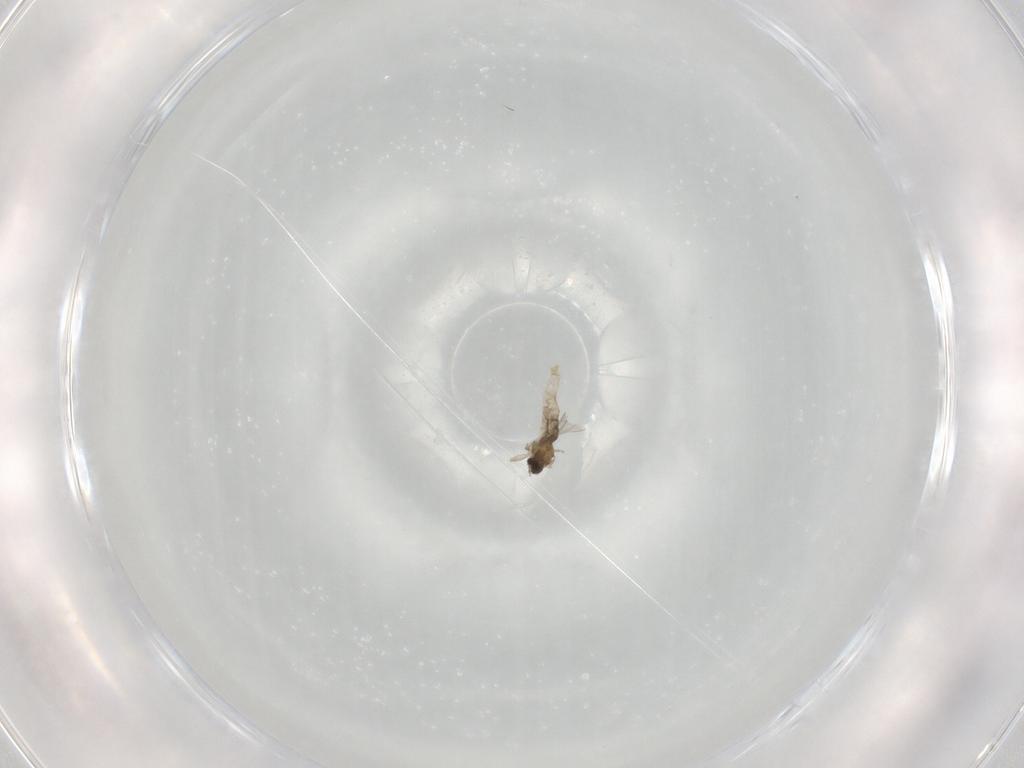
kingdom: Animalia
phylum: Arthropoda
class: Insecta
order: Diptera
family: Cecidomyiidae
